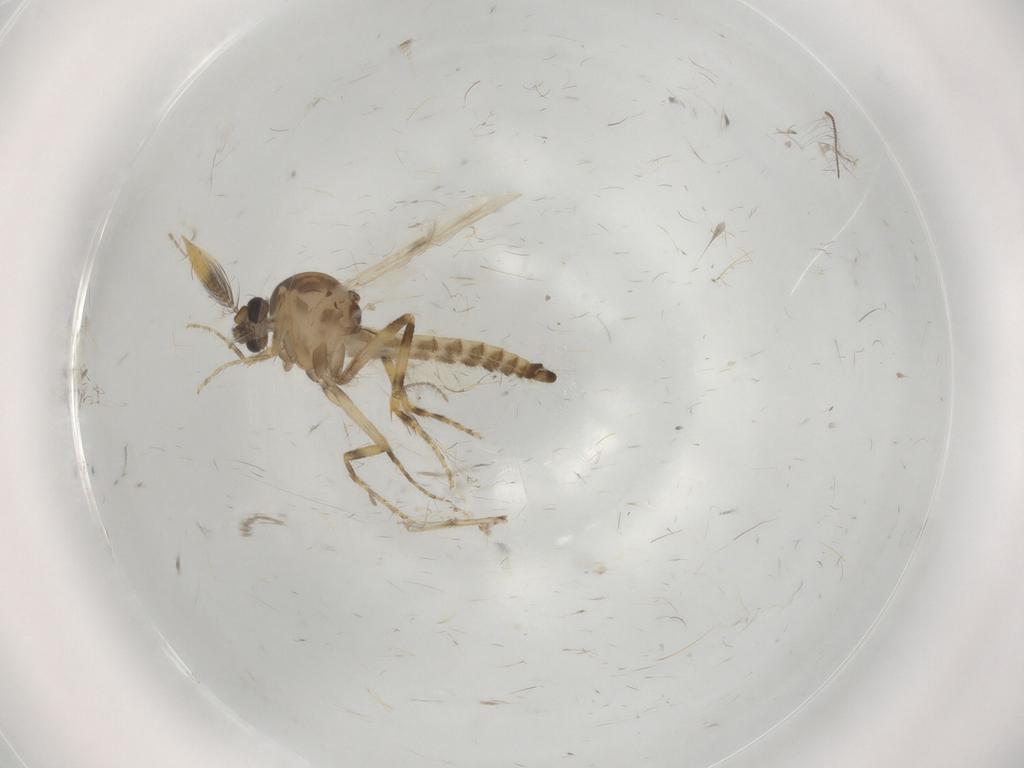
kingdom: Animalia
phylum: Arthropoda
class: Insecta
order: Diptera
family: Ceratopogonidae
